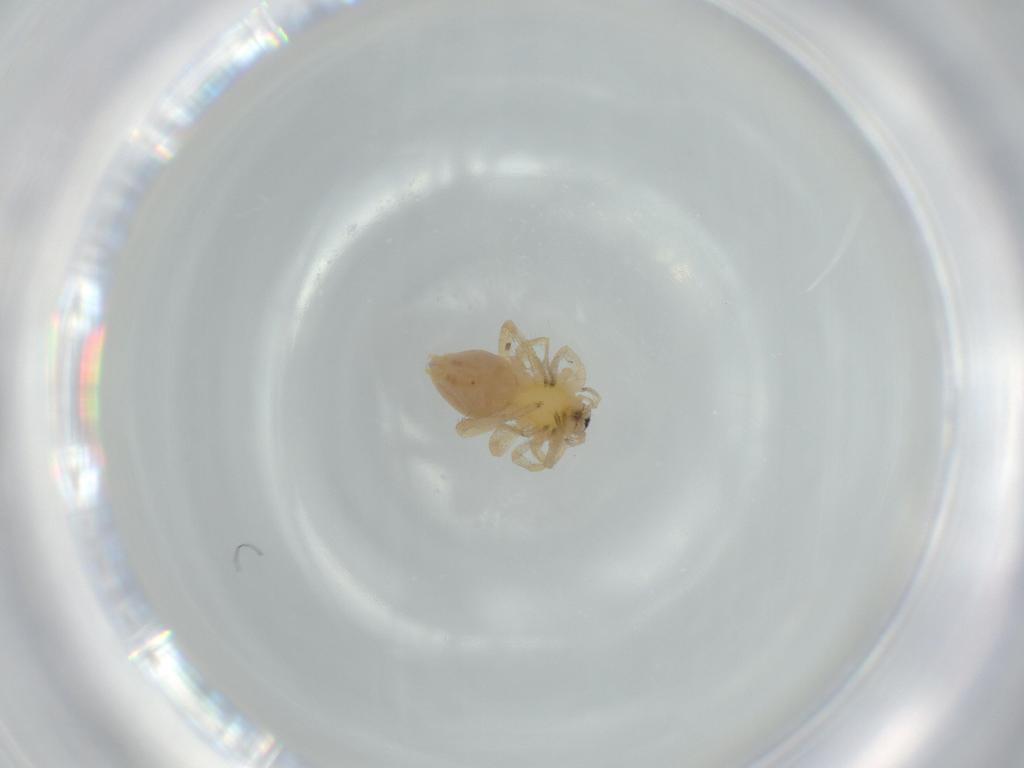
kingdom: Animalia
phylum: Arthropoda
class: Arachnida
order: Araneae
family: Anyphaenidae
